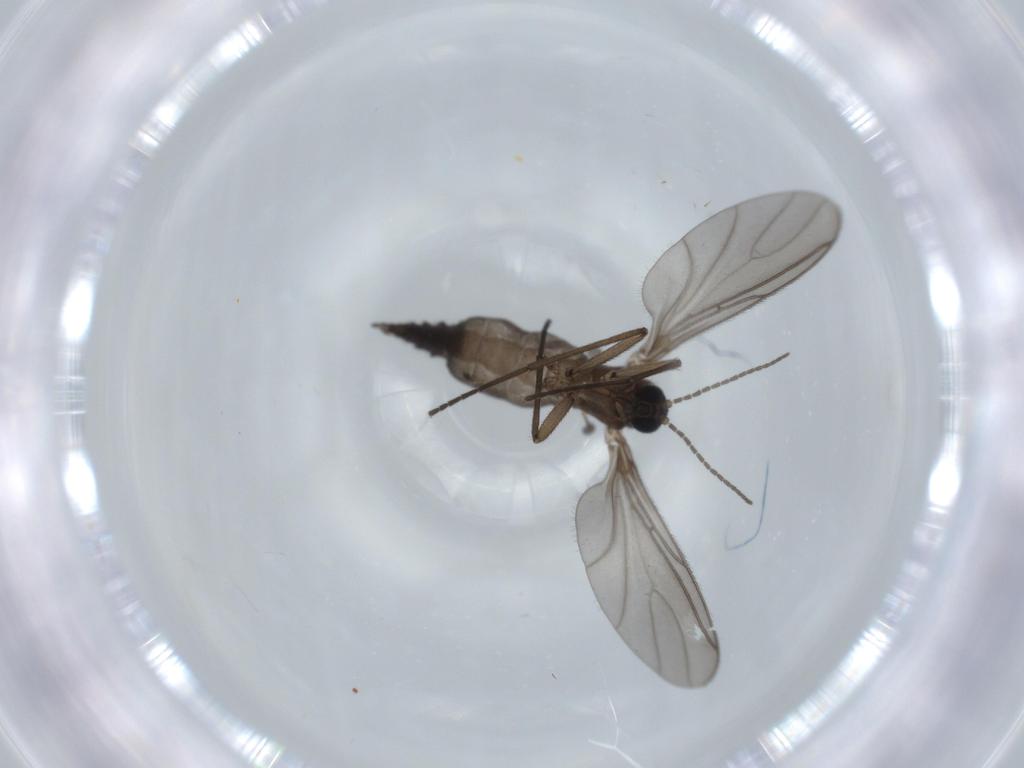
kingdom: Animalia
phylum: Arthropoda
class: Insecta
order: Diptera
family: Sciaridae
